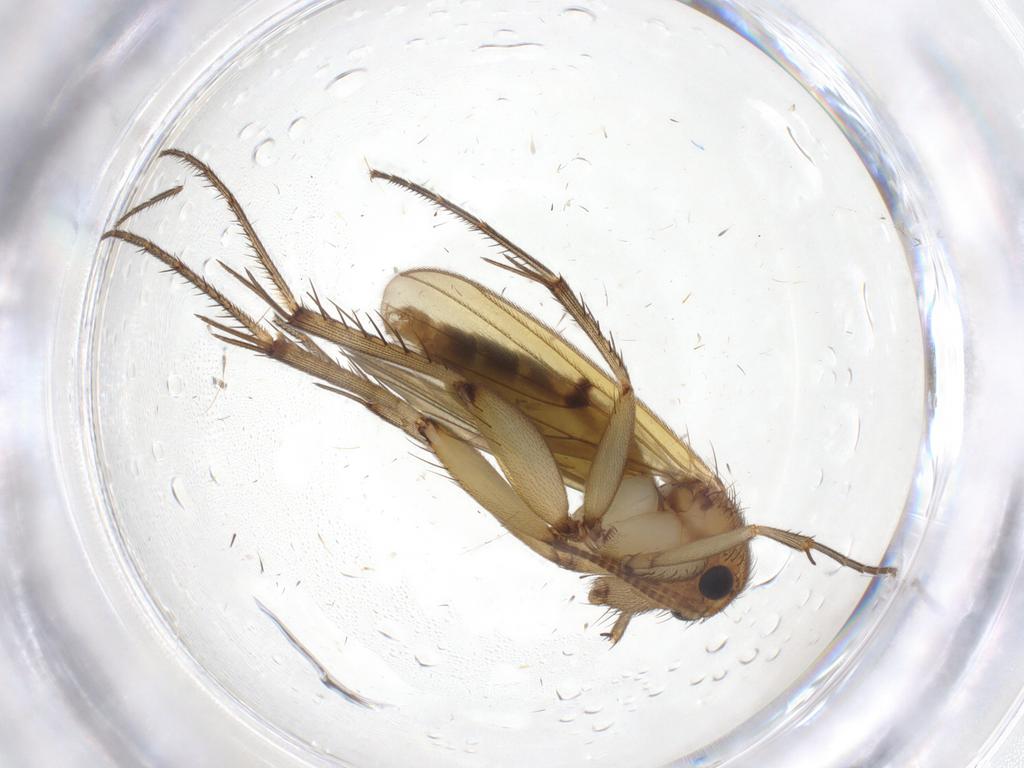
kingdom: Animalia
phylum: Arthropoda
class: Insecta
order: Diptera
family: Mycetophilidae
